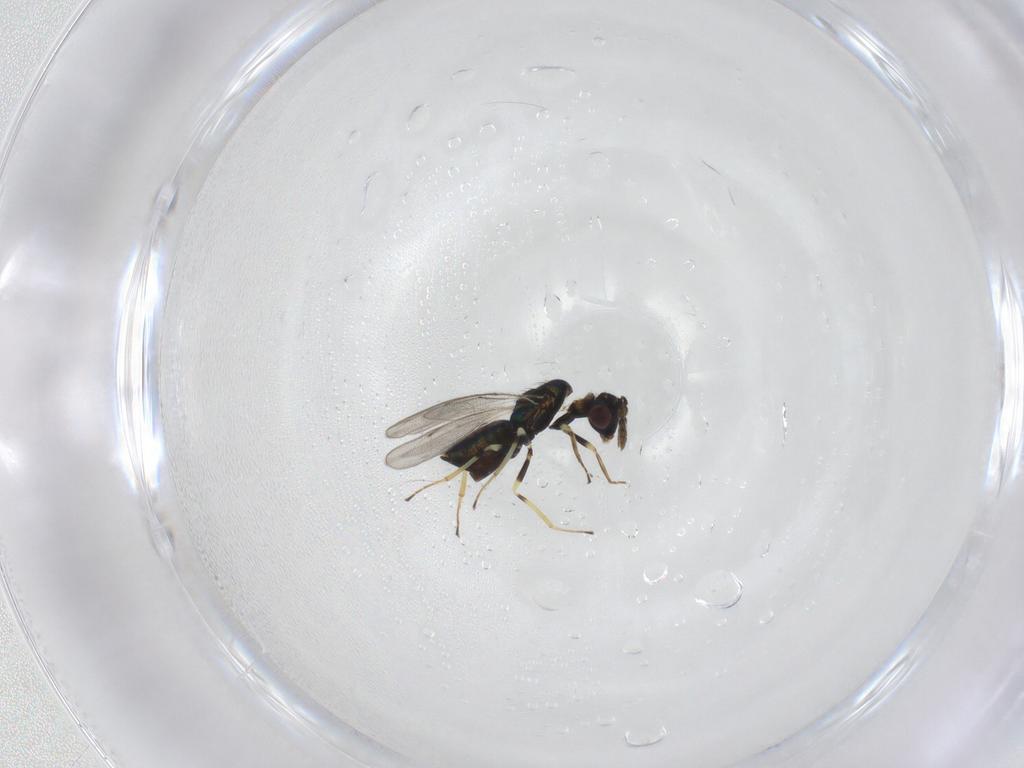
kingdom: Animalia
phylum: Arthropoda
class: Insecta
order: Hymenoptera
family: Eulophidae
